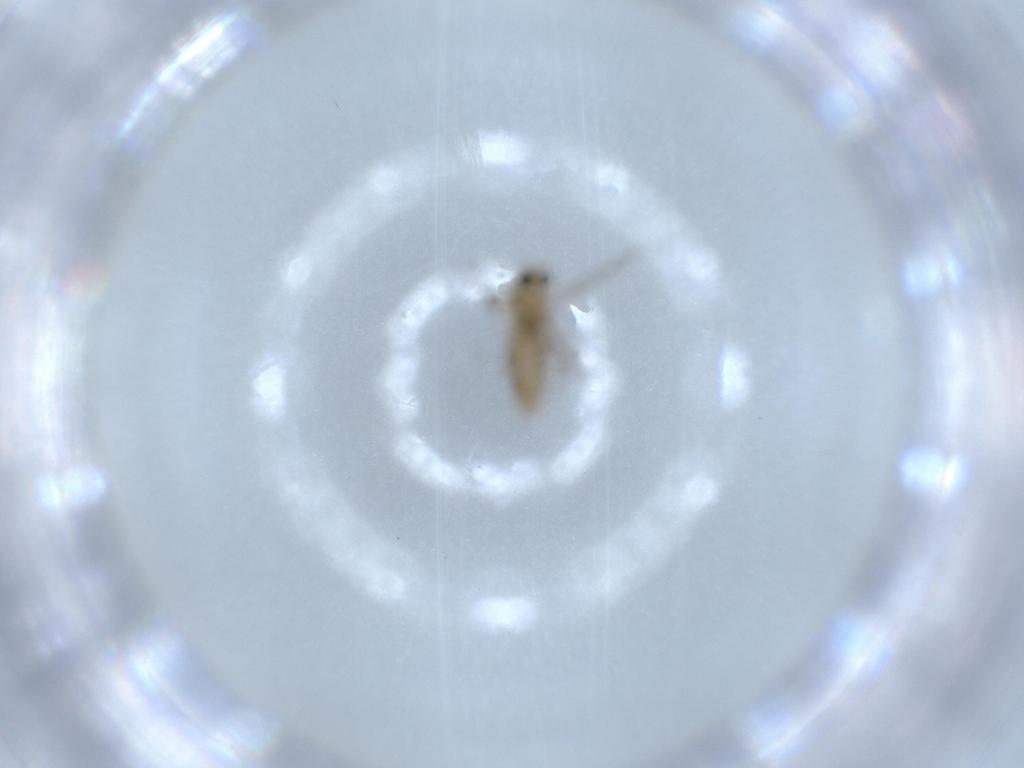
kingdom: Animalia
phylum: Arthropoda
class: Insecta
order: Diptera
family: Chironomidae
